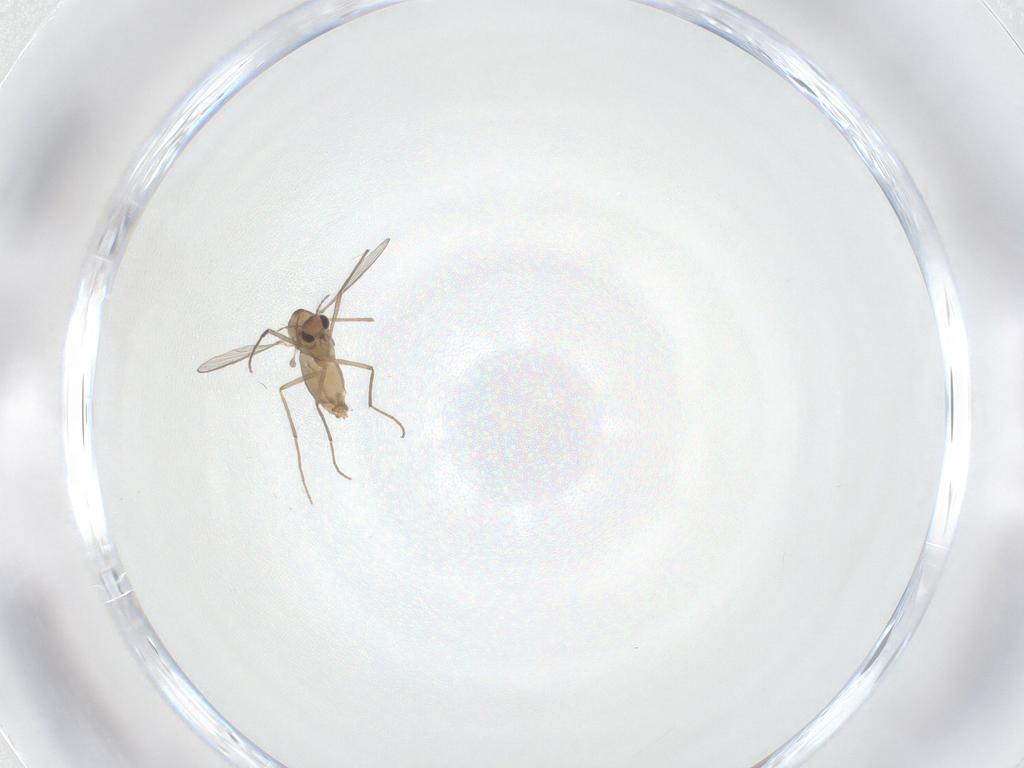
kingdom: Animalia
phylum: Arthropoda
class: Insecta
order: Diptera
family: Chironomidae
